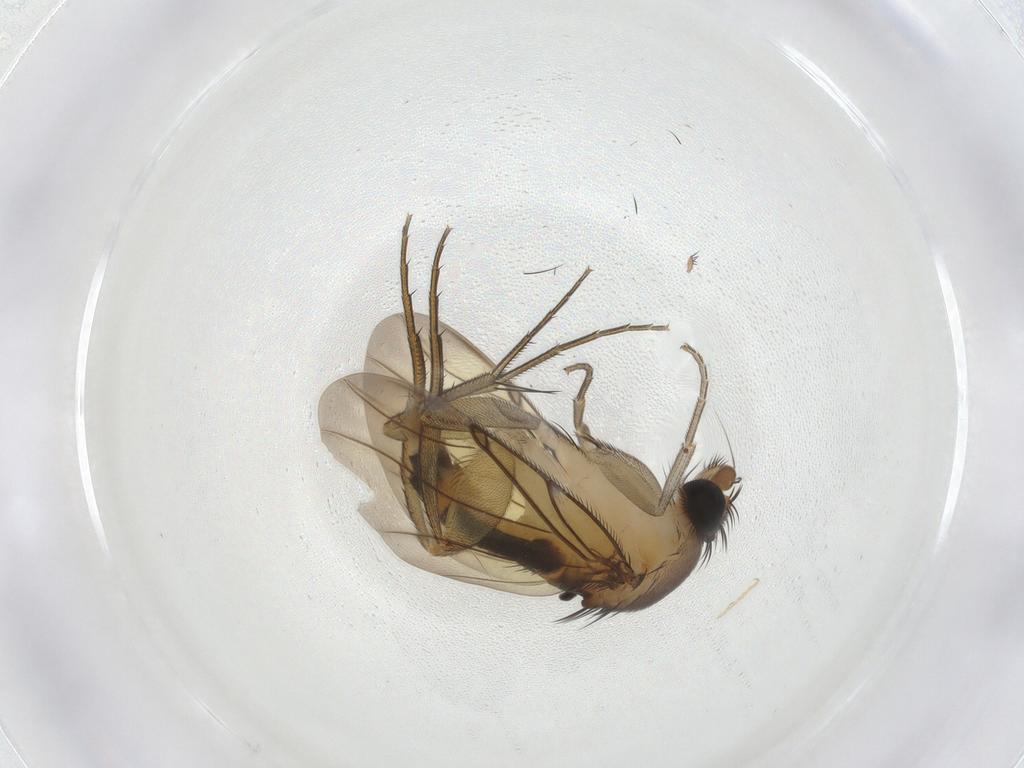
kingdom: Animalia
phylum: Arthropoda
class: Insecta
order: Diptera
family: Phoridae
